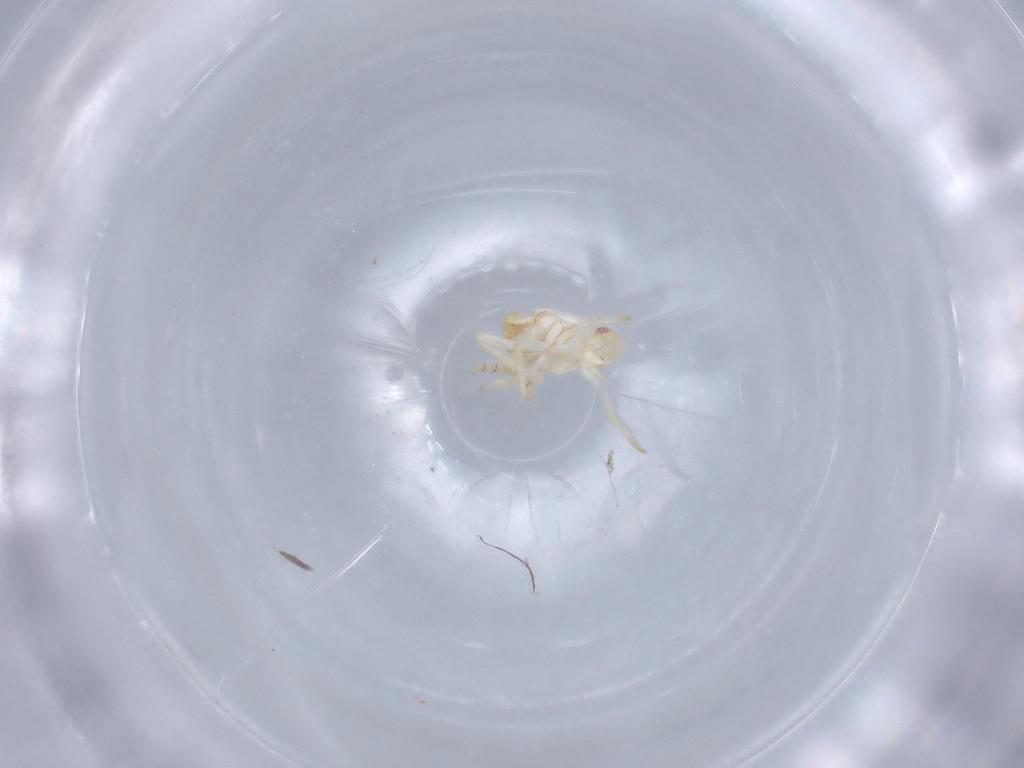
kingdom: Animalia
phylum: Arthropoda
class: Insecta
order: Hemiptera
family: Flatidae
